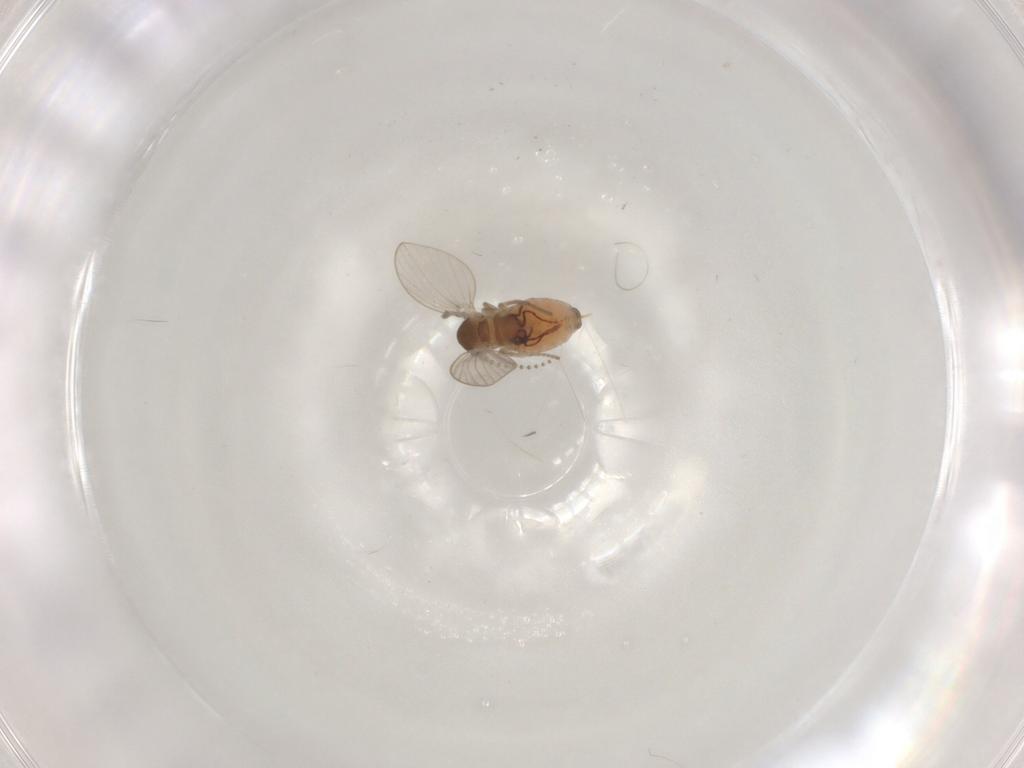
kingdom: Animalia
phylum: Arthropoda
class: Insecta
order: Diptera
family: Psychodidae
